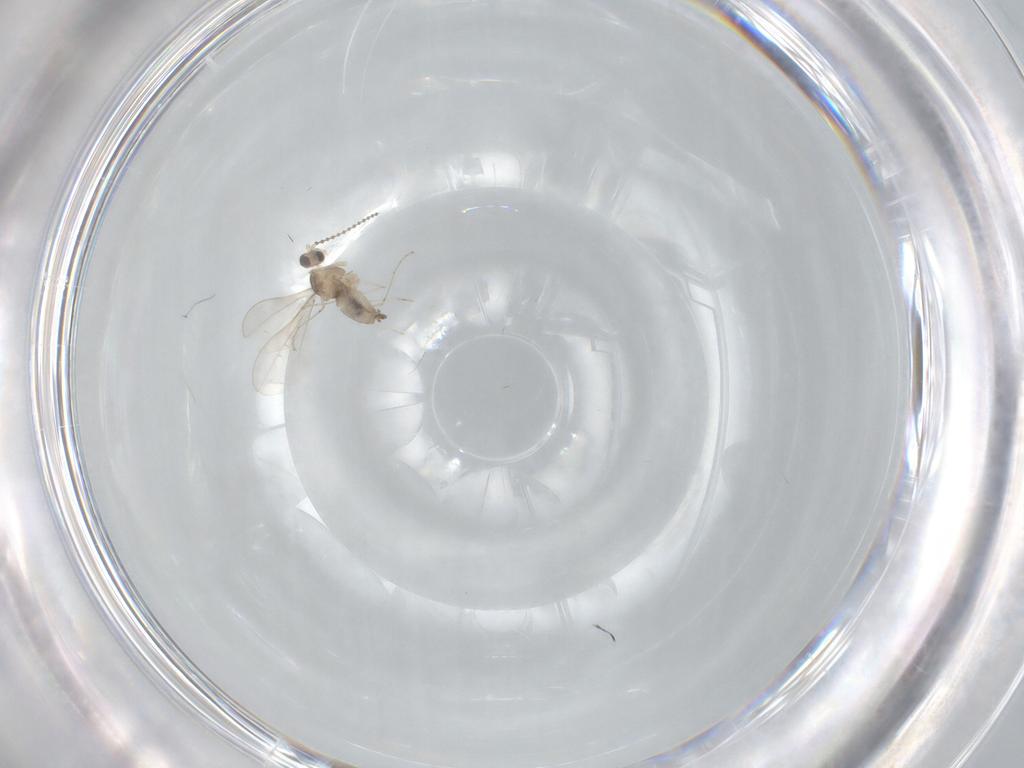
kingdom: Animalia
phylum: Arthropoda
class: Insecta
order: Diptera
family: Cecidomyiidae
